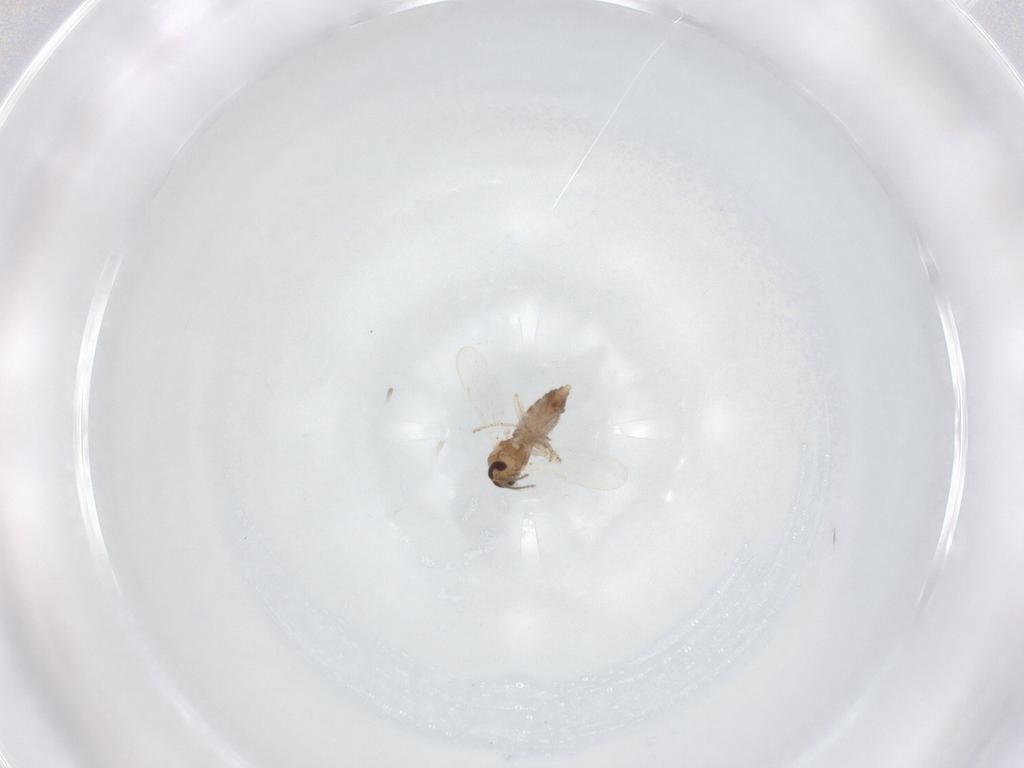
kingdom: Animalia
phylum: Arthropoda
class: Insecta
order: Diptera
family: Ceratopogonidae
